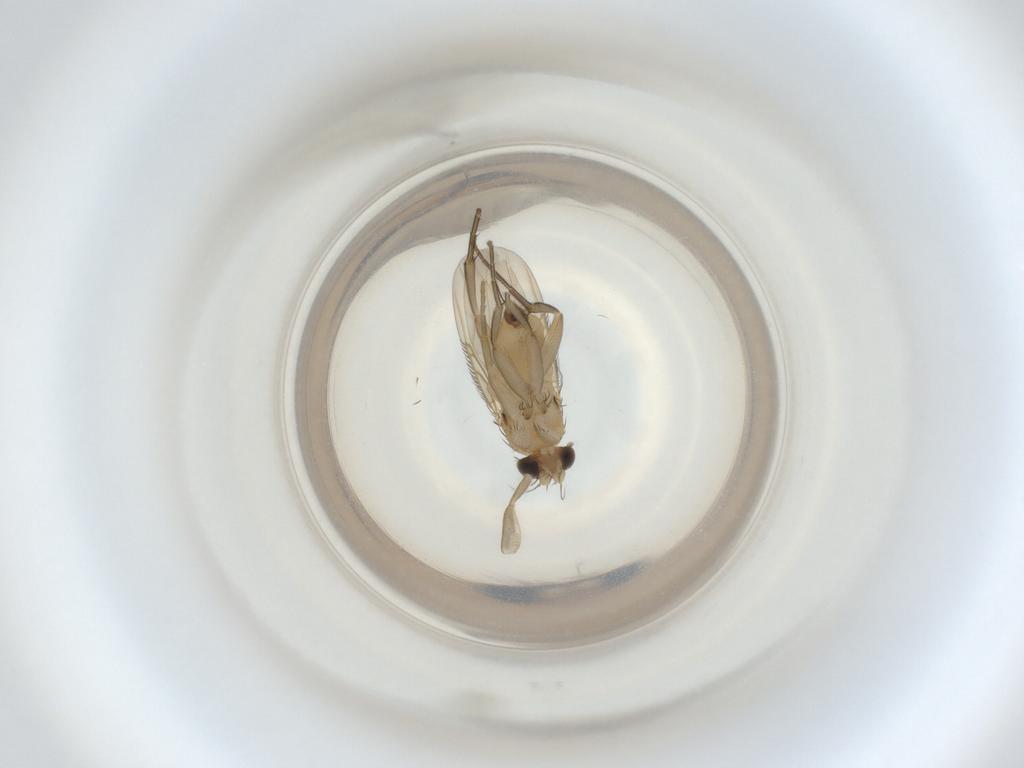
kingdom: Animalia
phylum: Arthropoda
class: Insecta
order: Diptera
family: Phoridae
